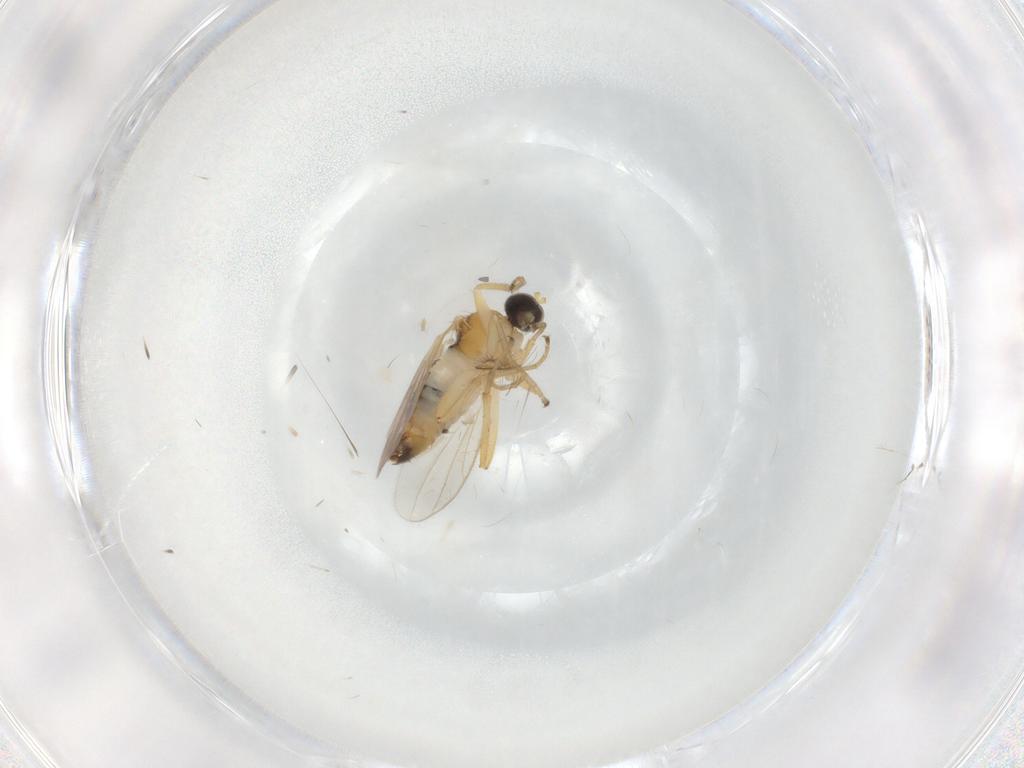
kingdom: Animalia
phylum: Arthropoda
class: Insecta
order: Diptera
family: Hybotidae
